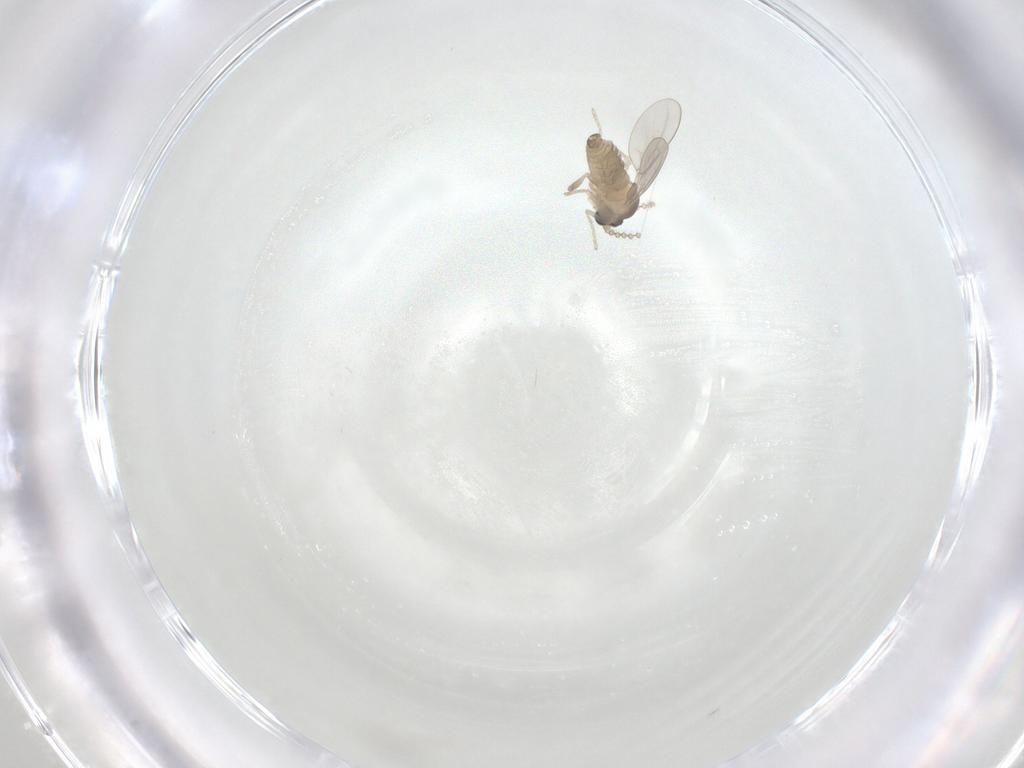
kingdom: Animalia
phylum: Arthropoda
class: Insecta
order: Diptera
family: Cecidomyiidae
